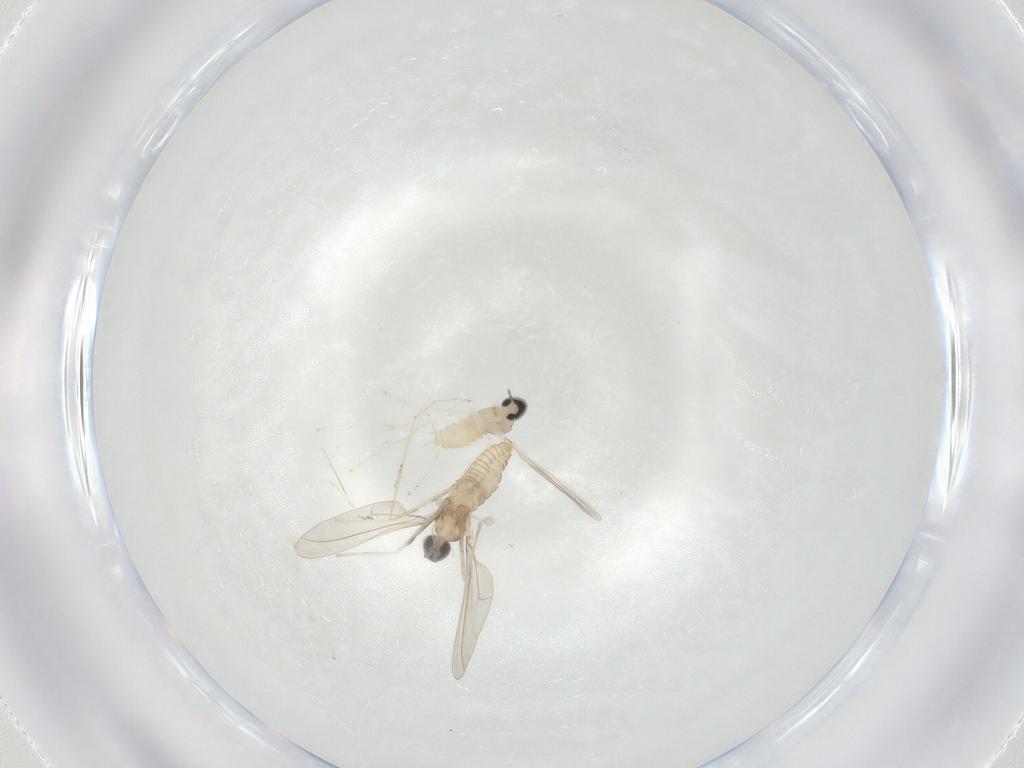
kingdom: Animalia
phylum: Arthropoda
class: Insecta
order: Diptera
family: Cecidomyiidae
